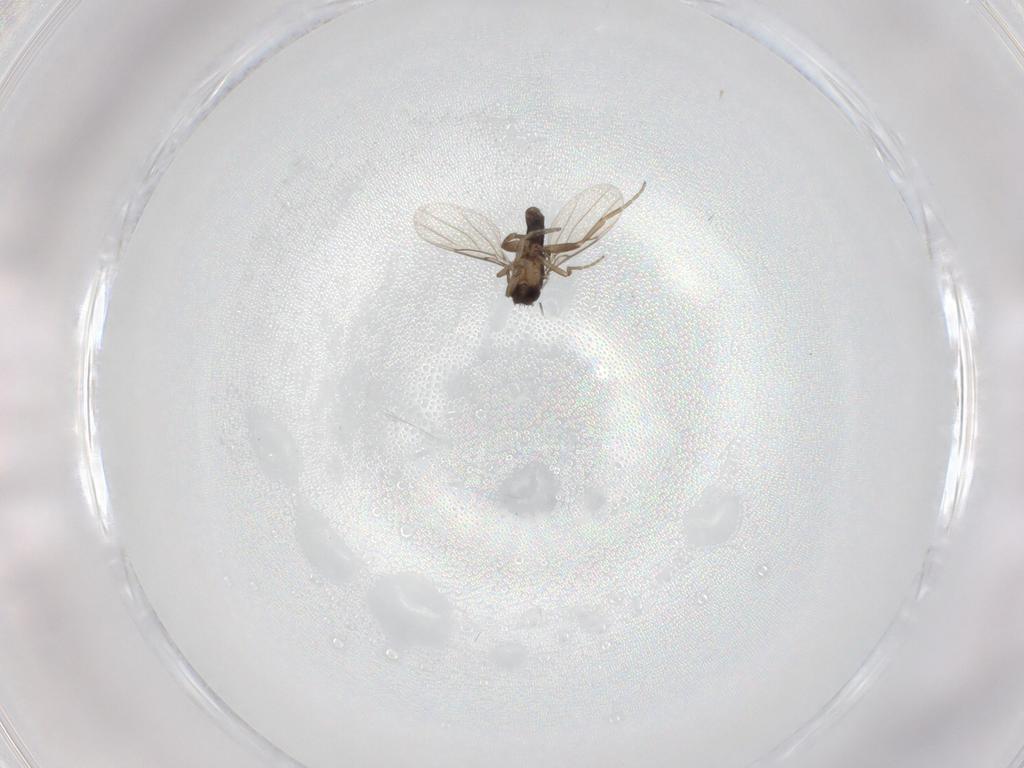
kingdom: Animalia
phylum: Arthropoda
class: Insecta
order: Diptera
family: Phoridae
